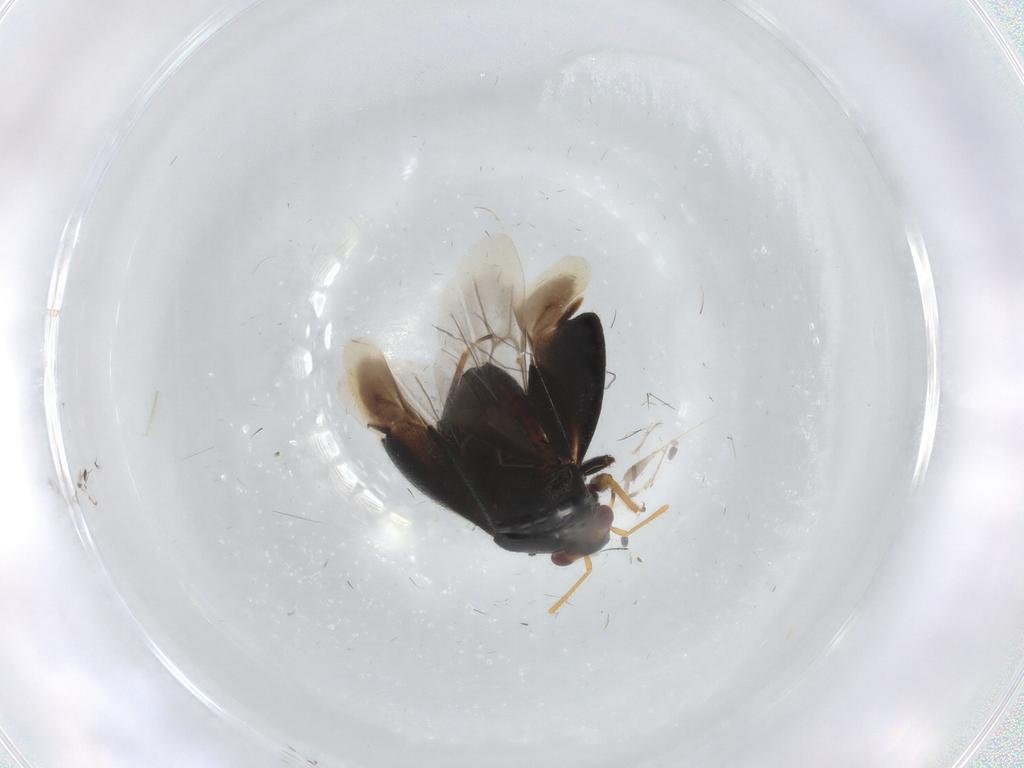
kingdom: Animalia
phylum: Arthropoda
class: Insecta
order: Hemiptera
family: Miridae
